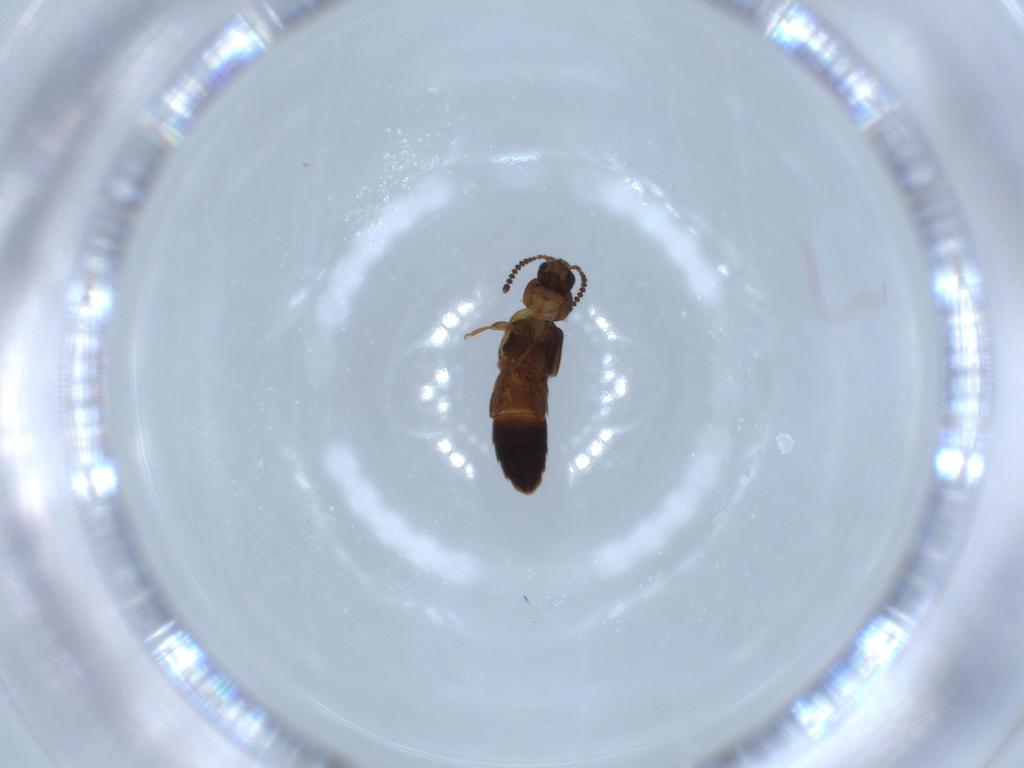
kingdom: Animalia
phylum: Arthropoda
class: Insecta
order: Coleoptera
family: Staphylinidae
